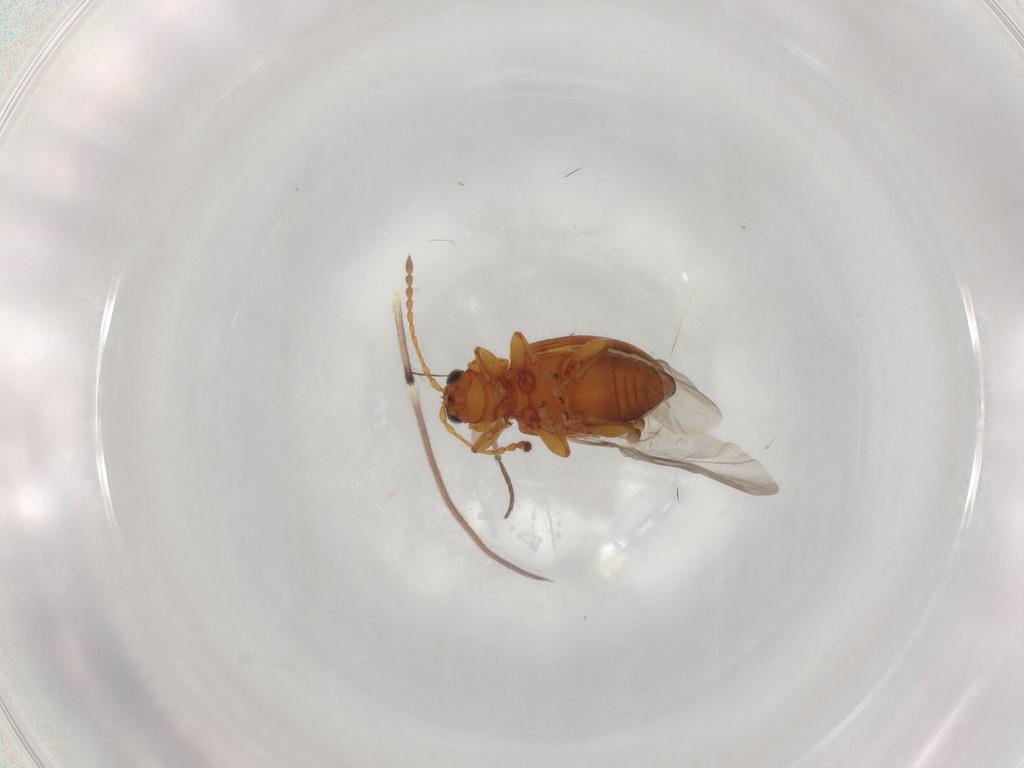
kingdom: Animalia
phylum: Arthropoda
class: Insecta
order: Coleoptera
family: Chrysomelidae
